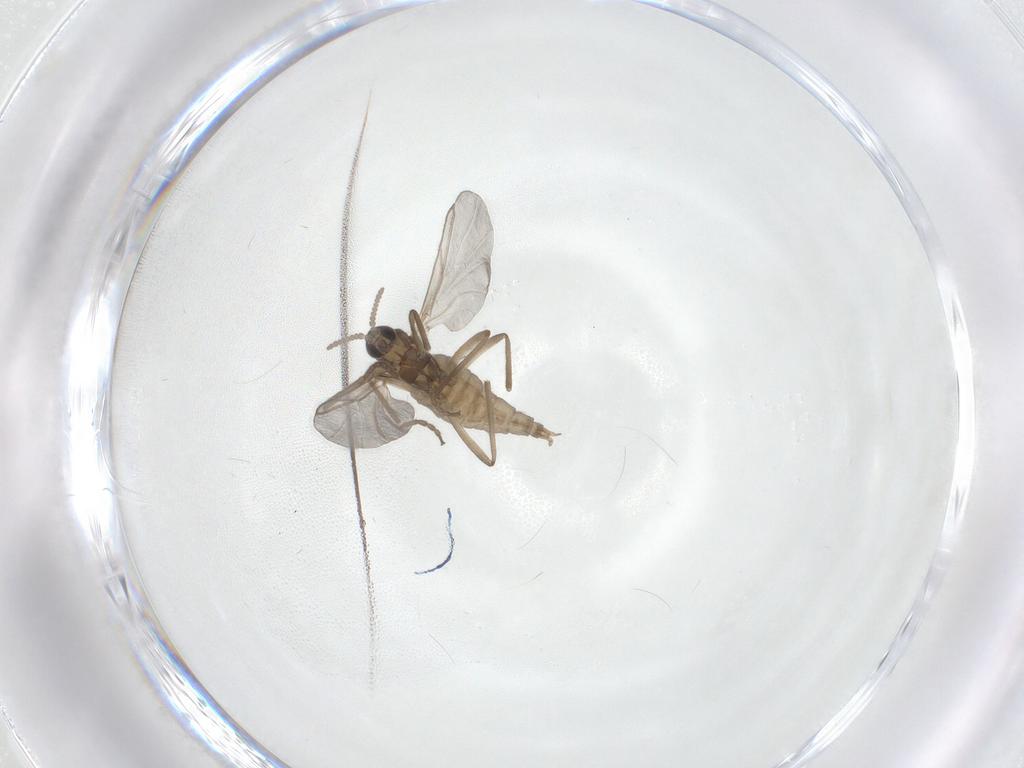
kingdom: Animalia
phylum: Arthropoda
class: Insecta
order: Diptera
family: Cecidomyiidae
